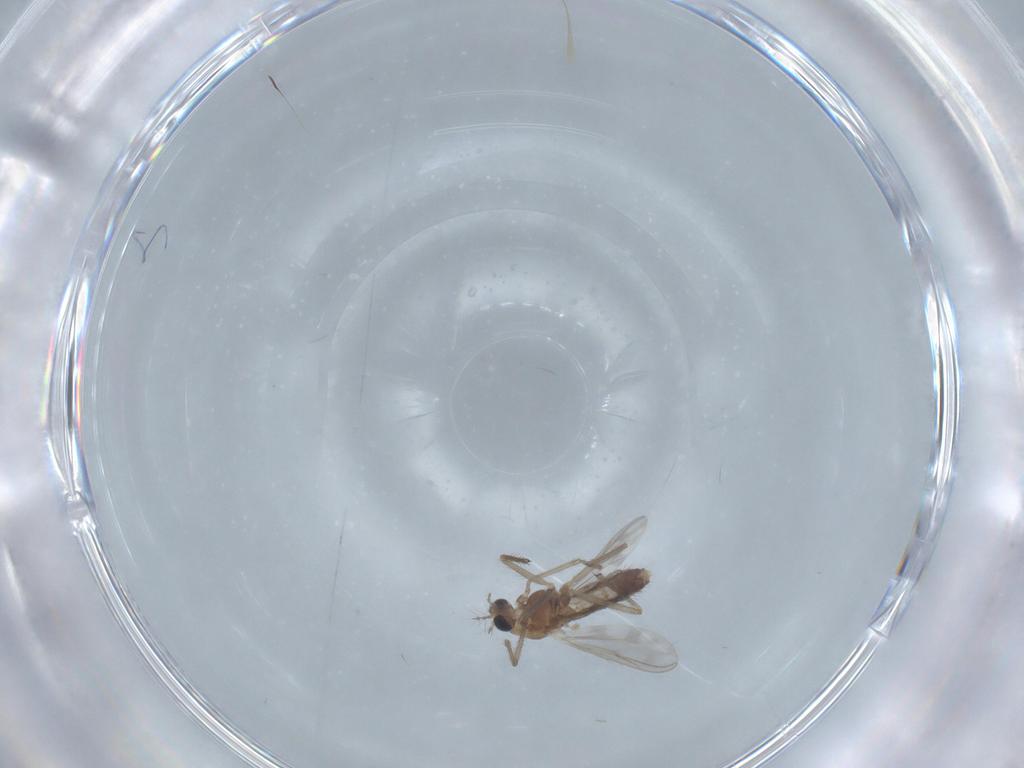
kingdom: Animalia
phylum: Arthropoda
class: Insecta
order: Diptera
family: Chironomidae
